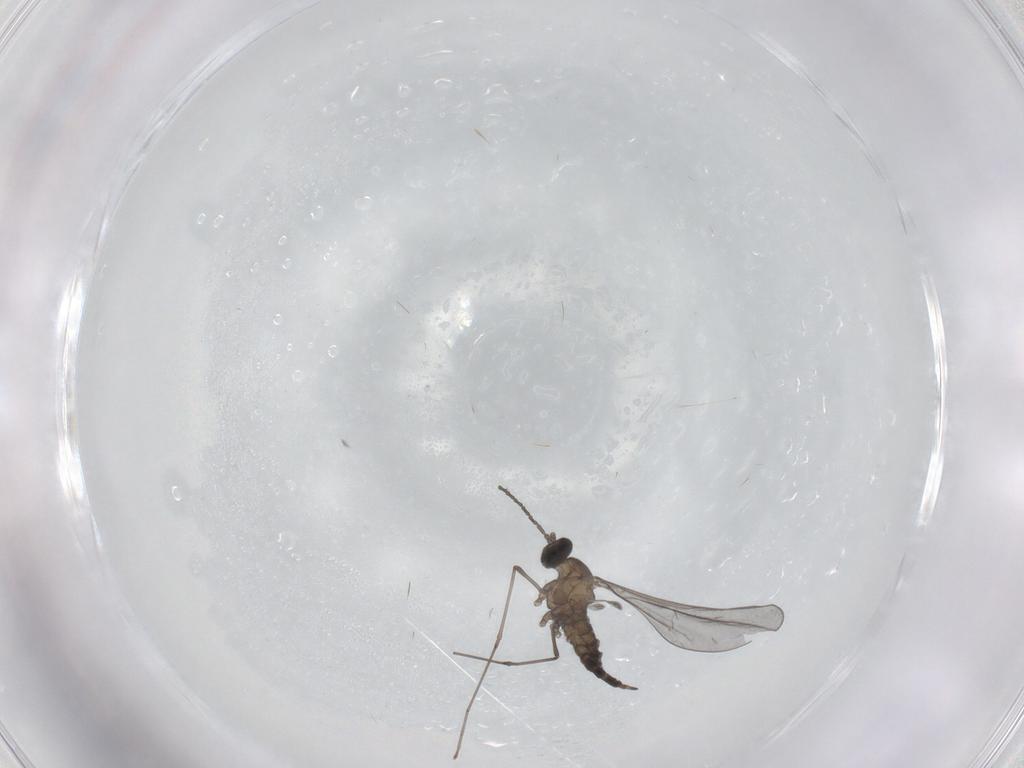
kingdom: Animalia
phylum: Arthropoda
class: Insecta
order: Diptera
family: Cecidomyiidae
